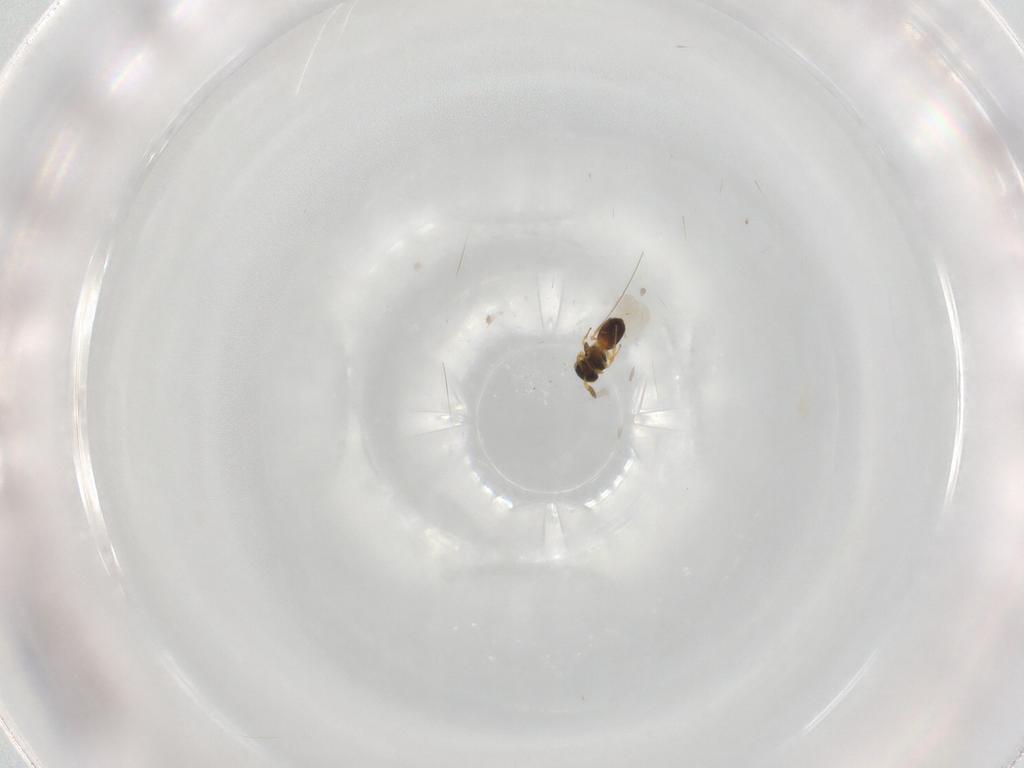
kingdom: Animalia
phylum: Arthropoda
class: Insecta
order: Hymenoptera
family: Platygastridae
